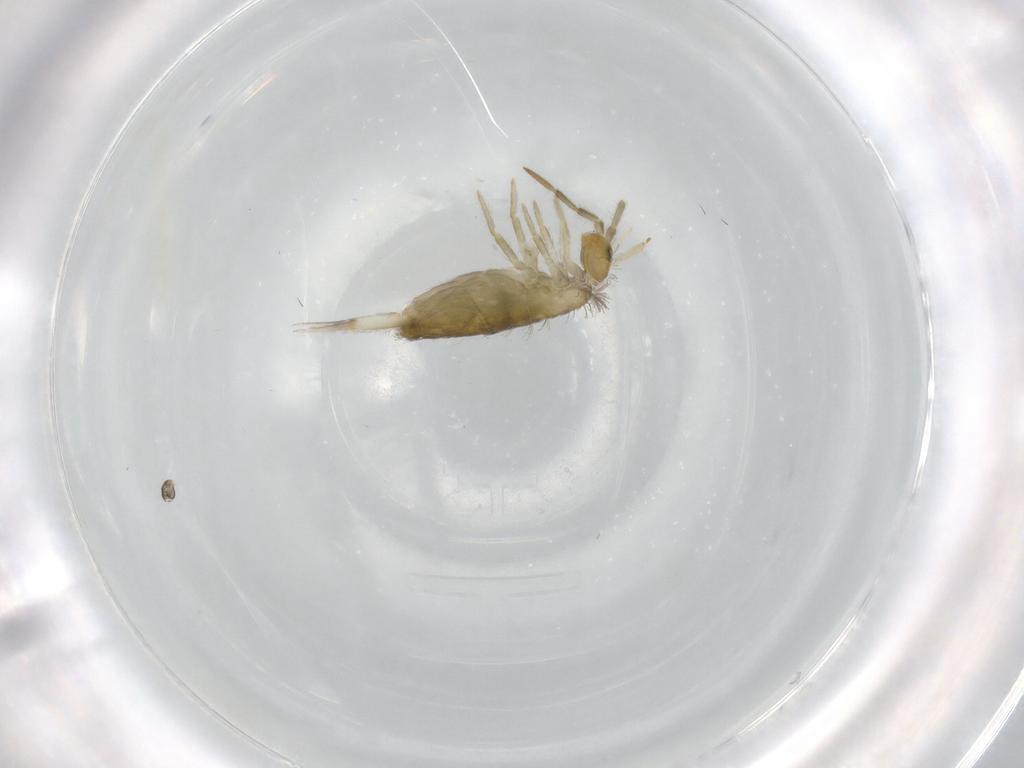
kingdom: Animalia
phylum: Arthropoda
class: Collembola
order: Entomobryomorpha
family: Entomobryidae
